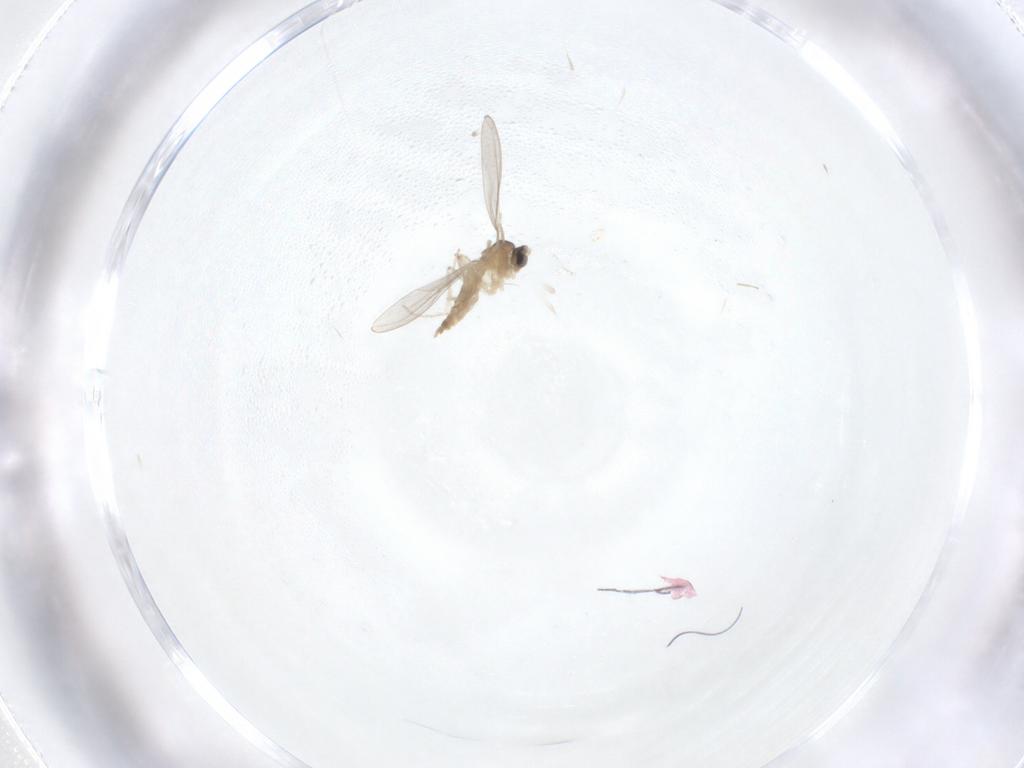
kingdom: Animalia
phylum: Arthropoda
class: Insecta
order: Diptera
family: Cecidomyiidae
